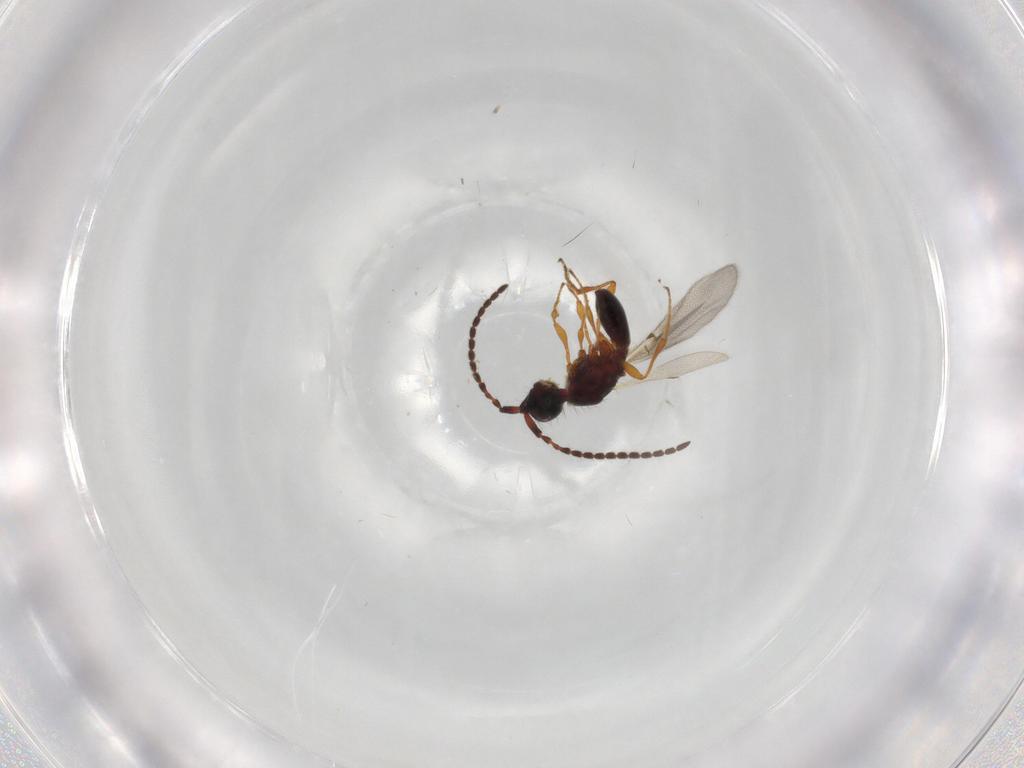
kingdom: Animalia
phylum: Arthropoda
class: Insecta
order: Hymenoptera
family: Diapriidae
